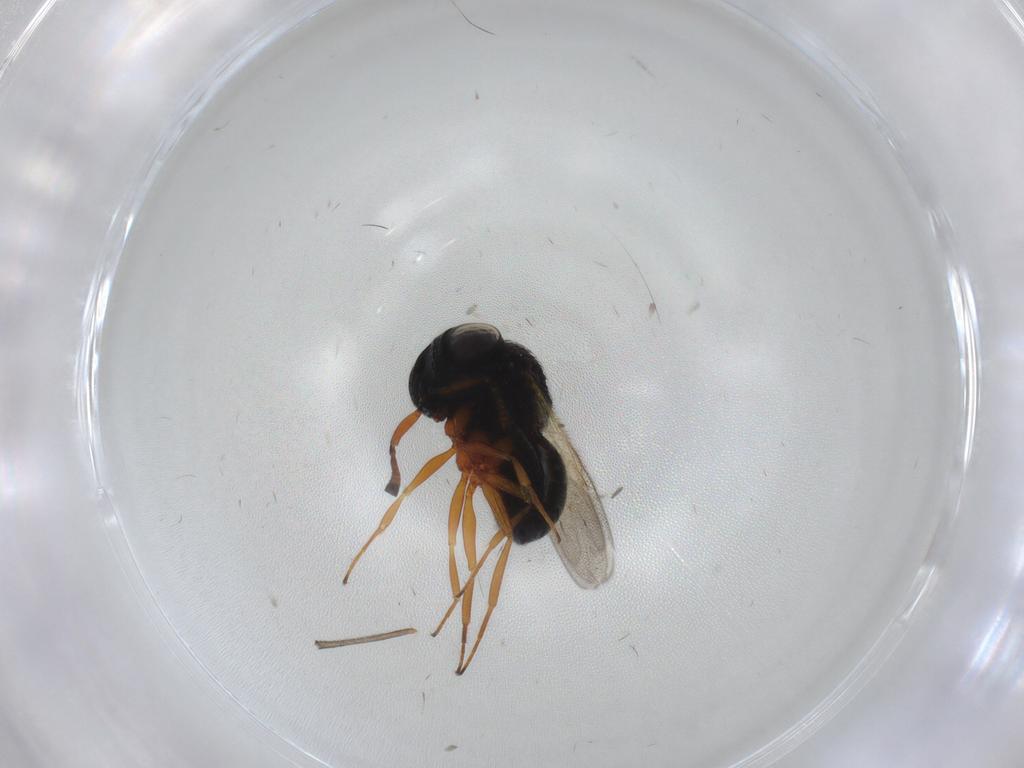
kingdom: Animalia
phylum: Arthropoda
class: Insecta
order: Hymenoptera
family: Scelionidae
